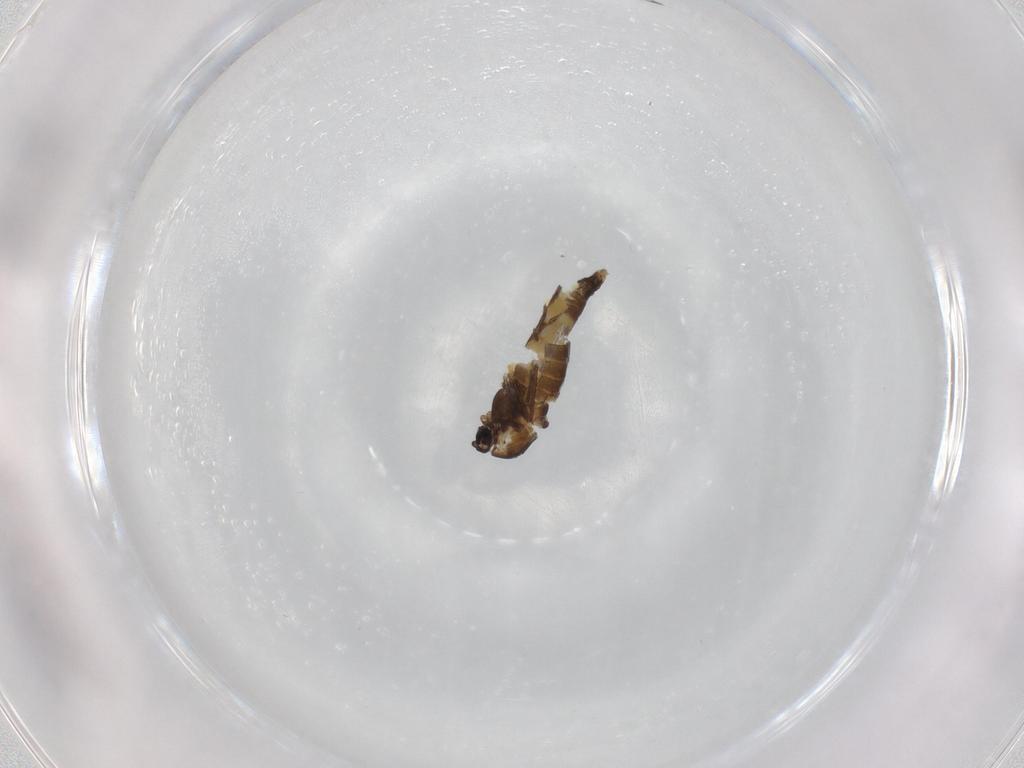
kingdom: Animalia
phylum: Arthropoda
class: Insecta
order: Diptera
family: Chironomidae
